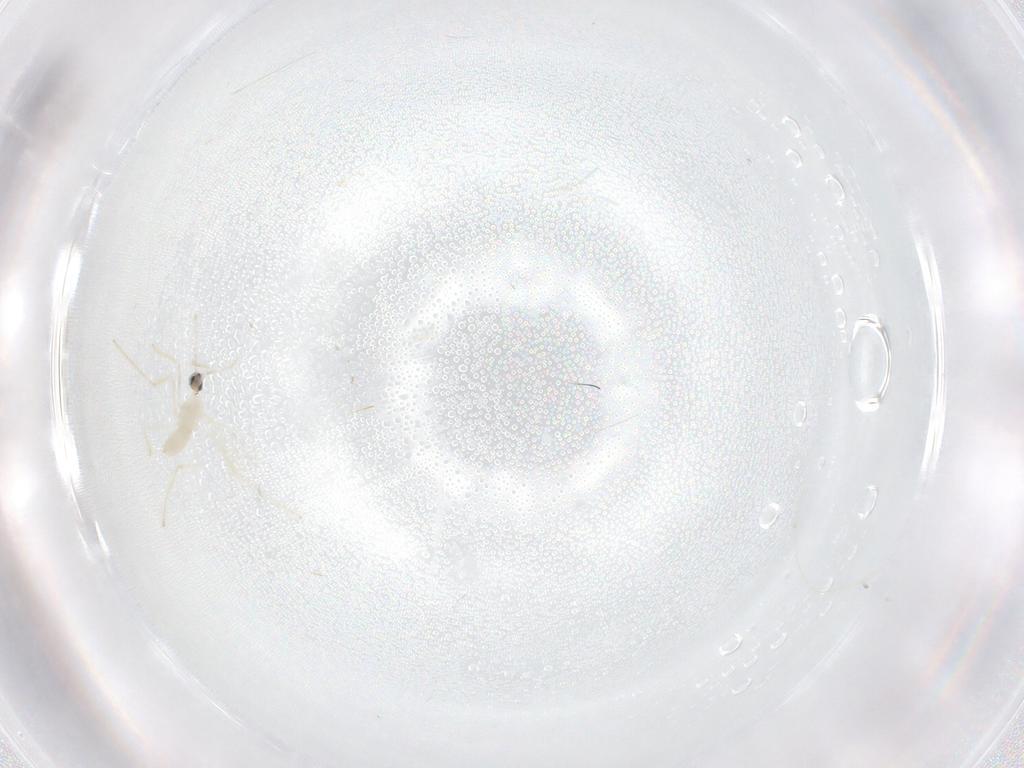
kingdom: Animalia
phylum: Arthropoda
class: Insecta
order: Diptera
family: Cecidomyiidae
